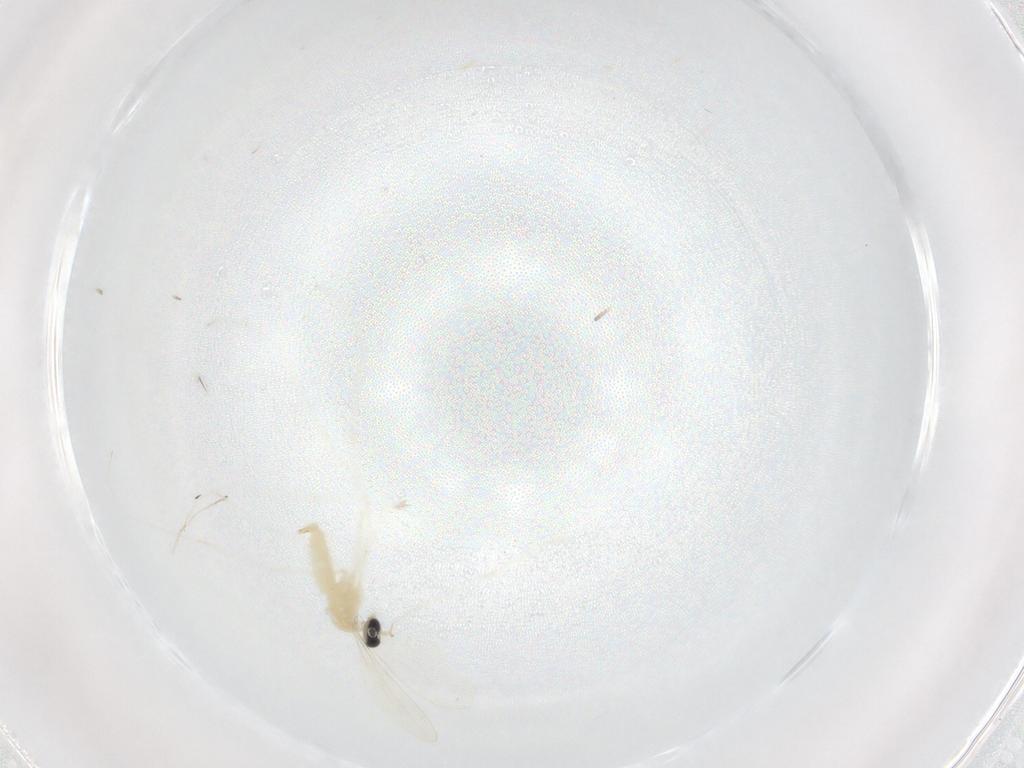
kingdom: Animalia
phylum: Arthropoda
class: Insecta
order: Diptera
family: Cecidomyiidae
